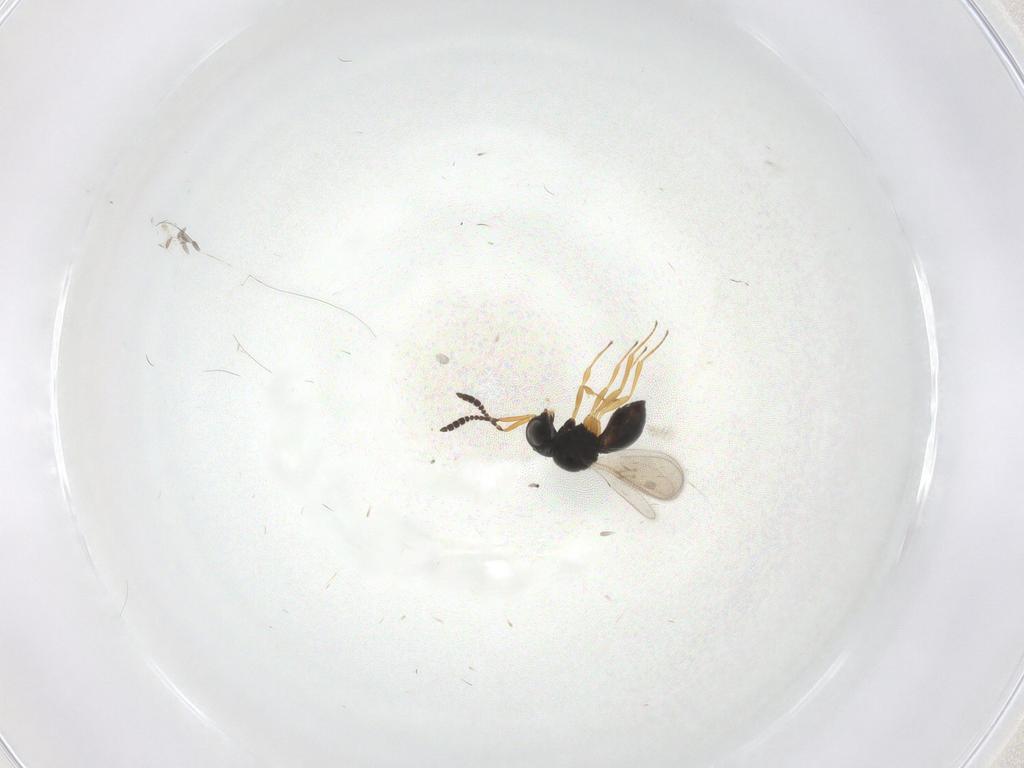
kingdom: Animalia
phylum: Arthropoda
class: Insecta
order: Hymenoptera
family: Scelionidae
